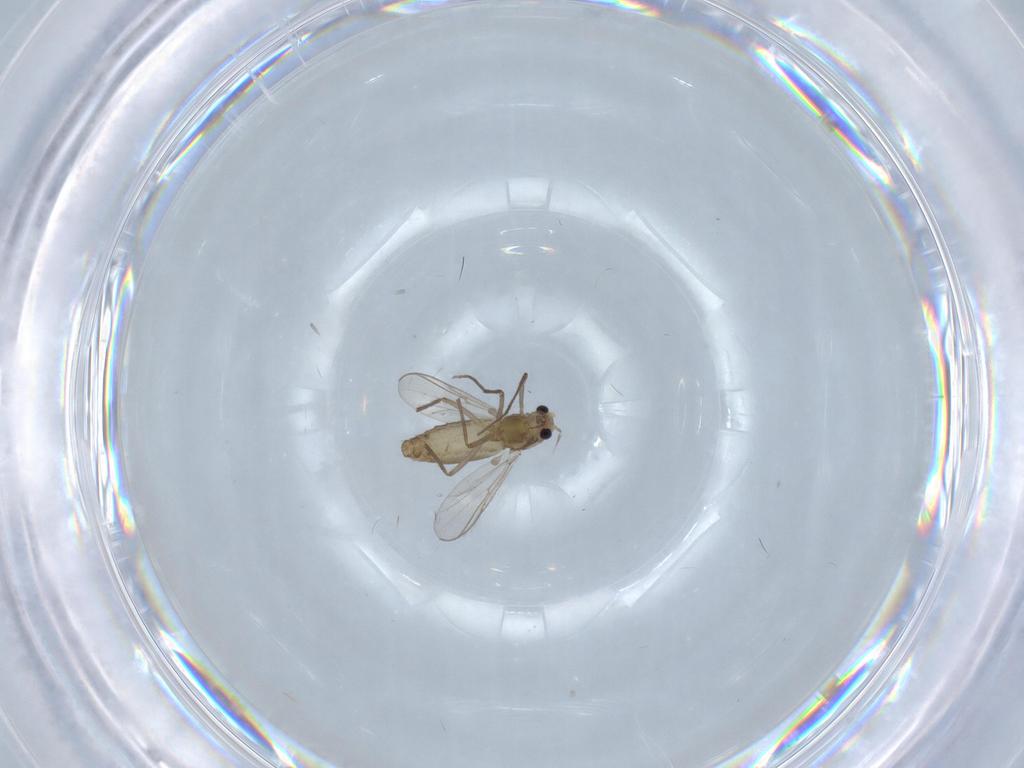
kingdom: Animalia
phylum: Arthropoda
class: Insecta
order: Diptera
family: Chironomidae
